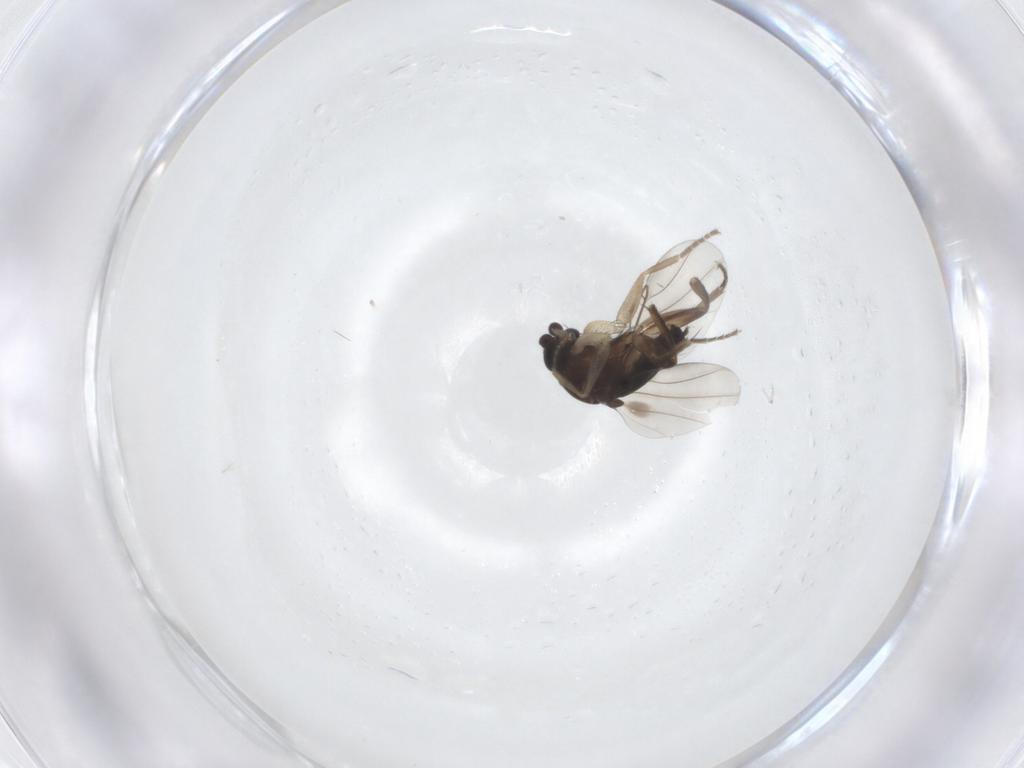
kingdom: Animalia
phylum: Arthropoda
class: Insecta
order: Diptera
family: Phoridae
